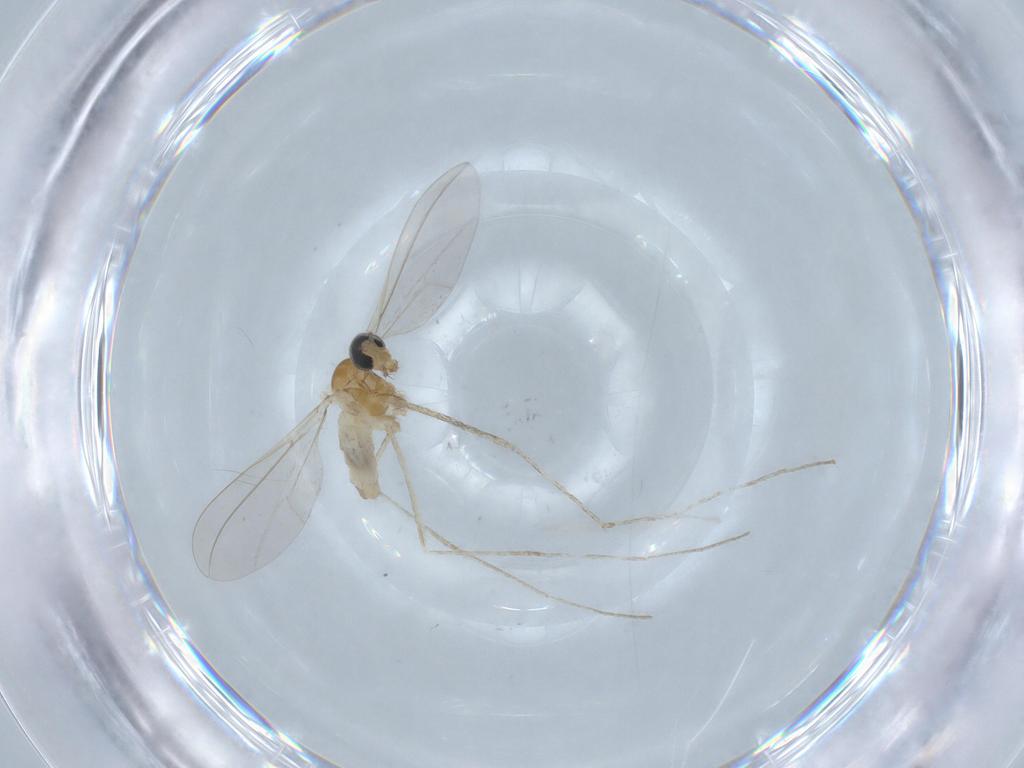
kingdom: Animalia
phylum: Arthropoda
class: Insecta
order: Diptera
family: Cecidomyiidae
